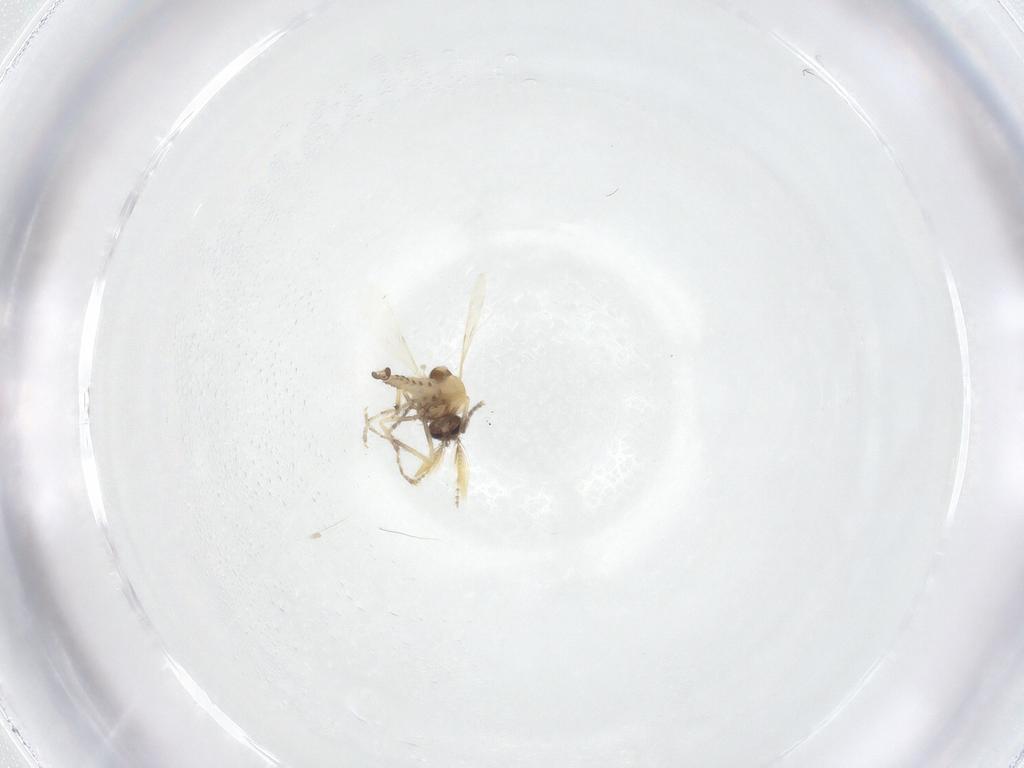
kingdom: Animalia
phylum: Arthropoda
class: Insecta
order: Diptera
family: Ceratopogonidae
